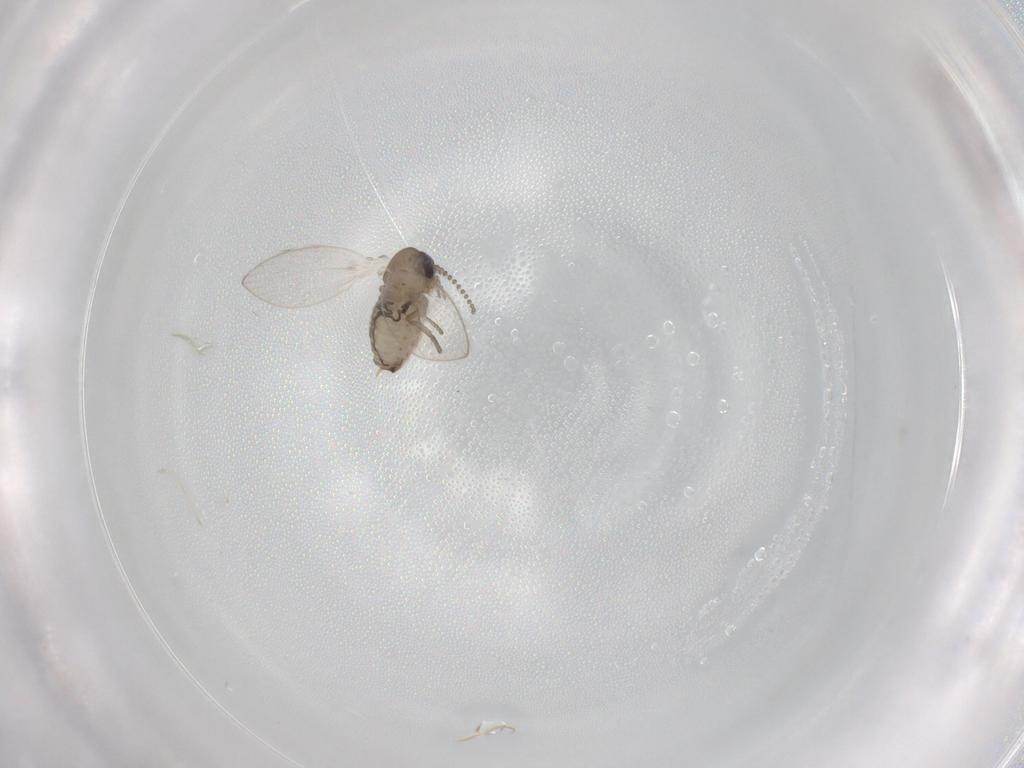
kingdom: Animalia
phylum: Arthropoda
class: Insecta
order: Diptera
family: Psychodidae
